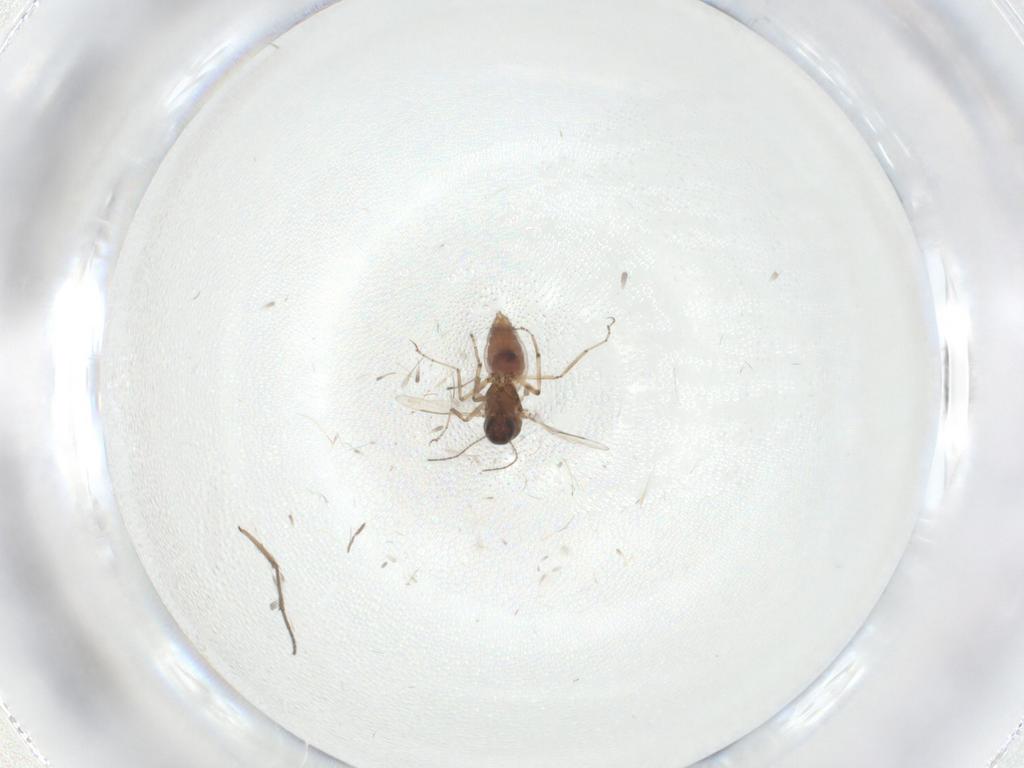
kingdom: Animalia
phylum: Arthropoda
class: Insecta
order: Diptera
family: Sciaridae
